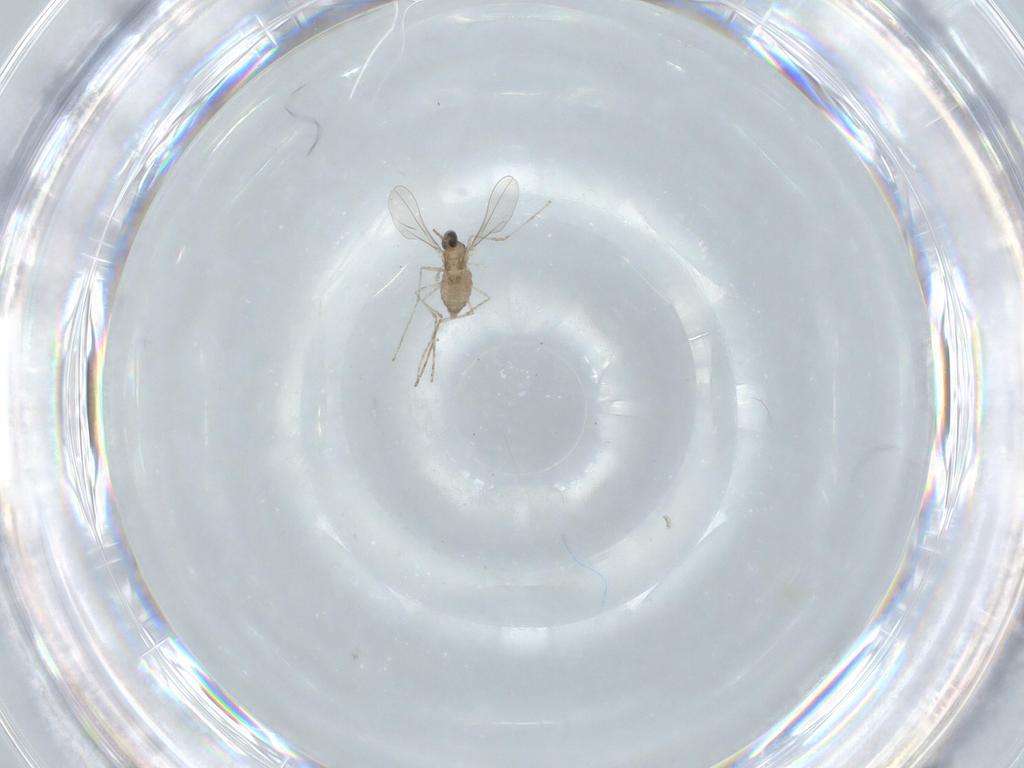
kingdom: Animalia
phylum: Arthropoda
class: Insecta
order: Diptera
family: Cecidomyiidae
